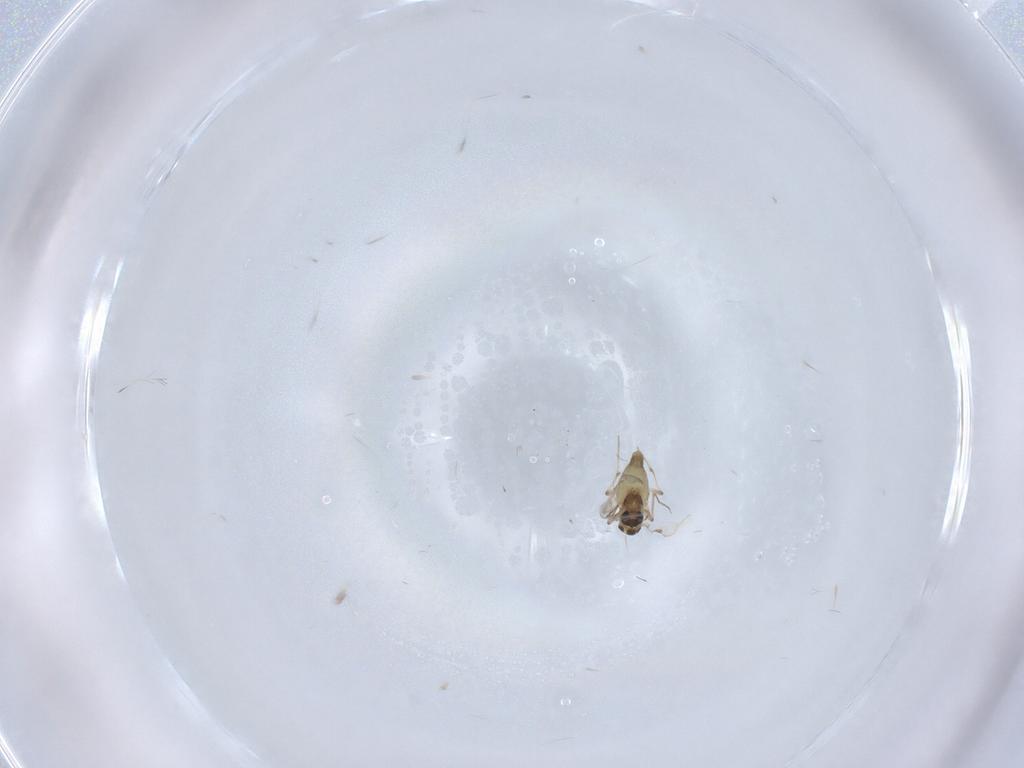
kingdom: Animalia
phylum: Arthropoda
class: Insecta
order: Diptera
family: Chironomidae
